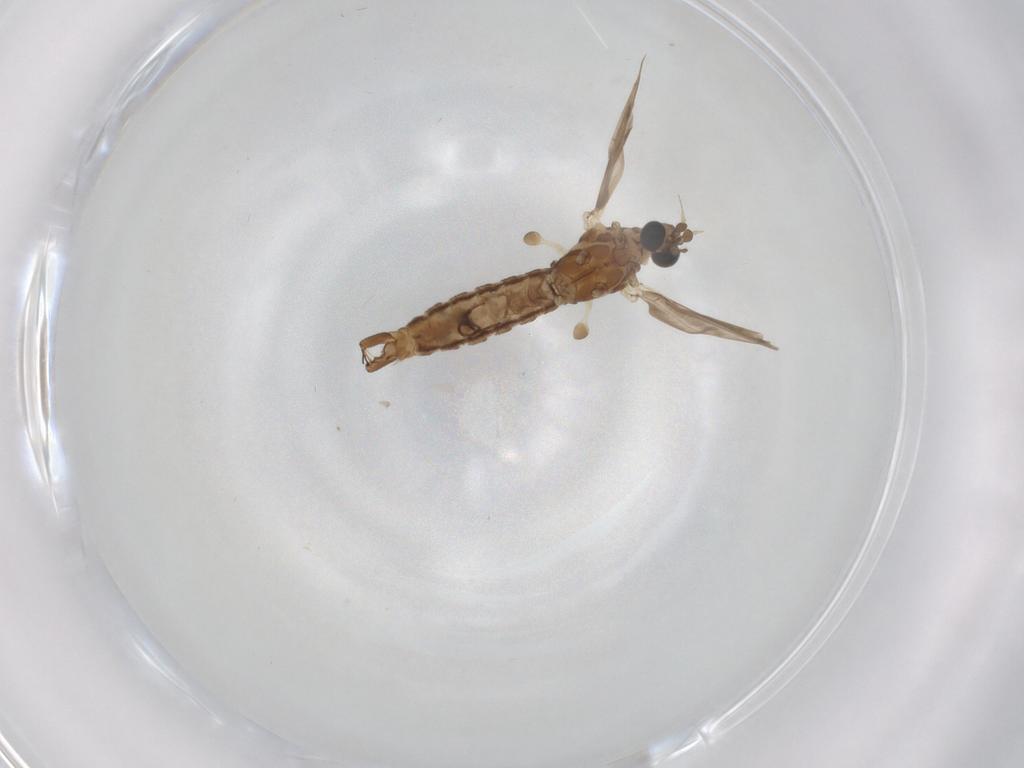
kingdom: Animalia
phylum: Arthropoda
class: Insecta
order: Diptera
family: Limoniidae
